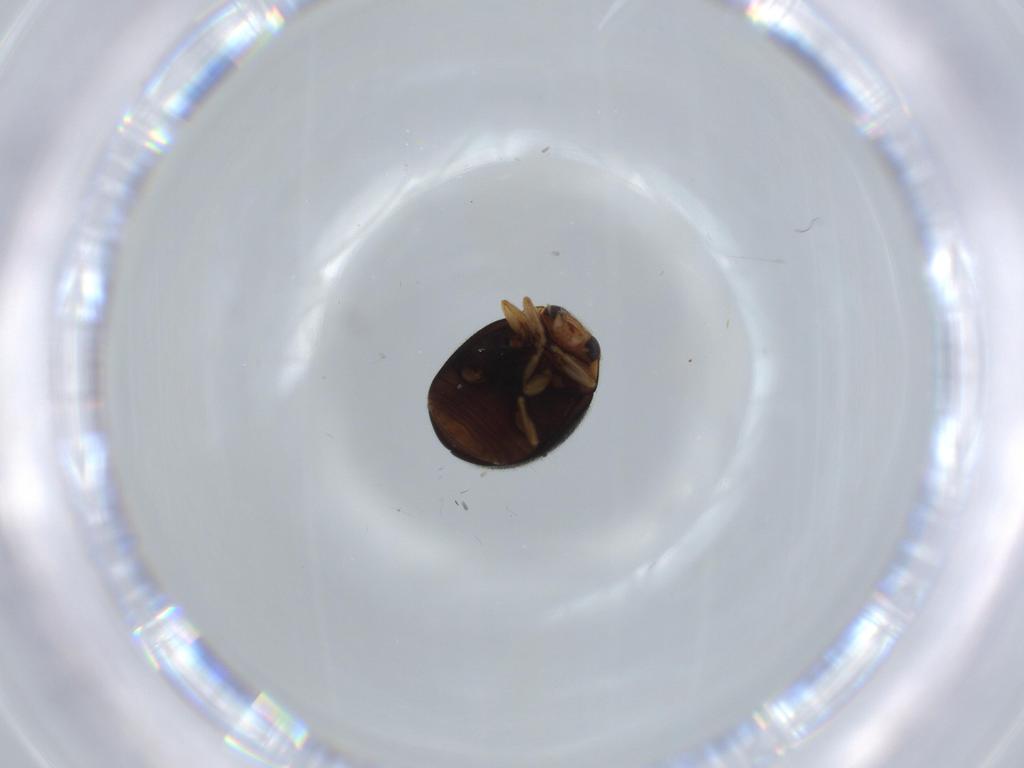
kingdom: Animalia
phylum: Arthropoda
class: Insecta
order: Coleoptera
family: Coccinellidae
